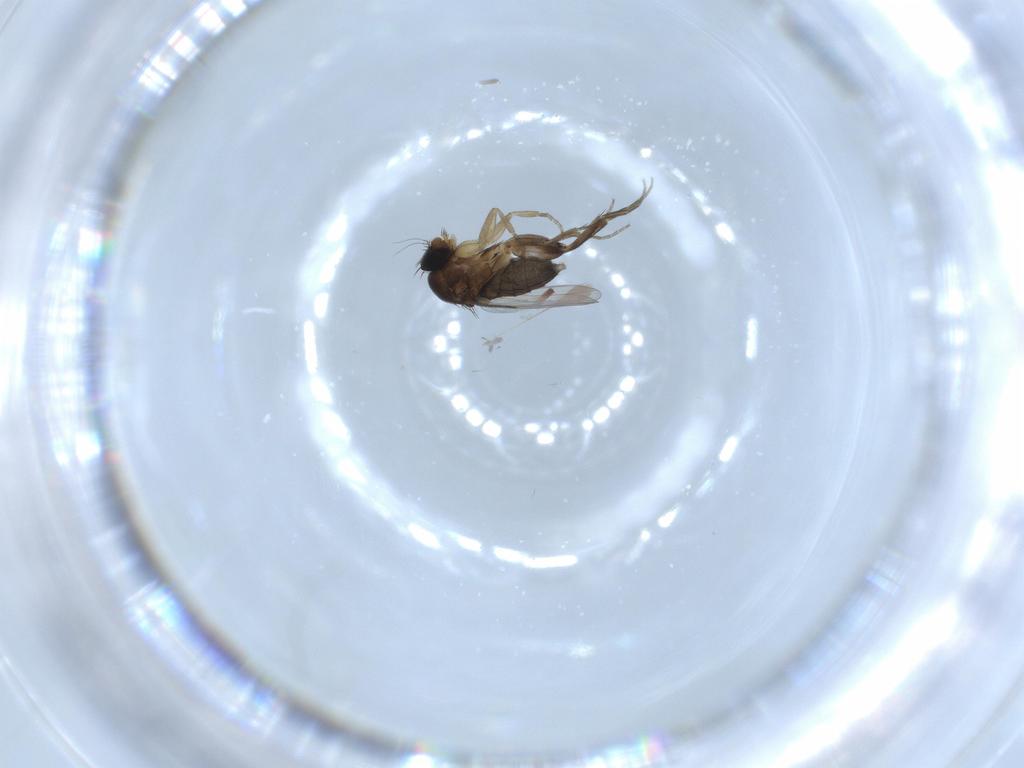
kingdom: Animalia
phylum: Arthropoda
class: Insecta
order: Diptera
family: Phoridae
